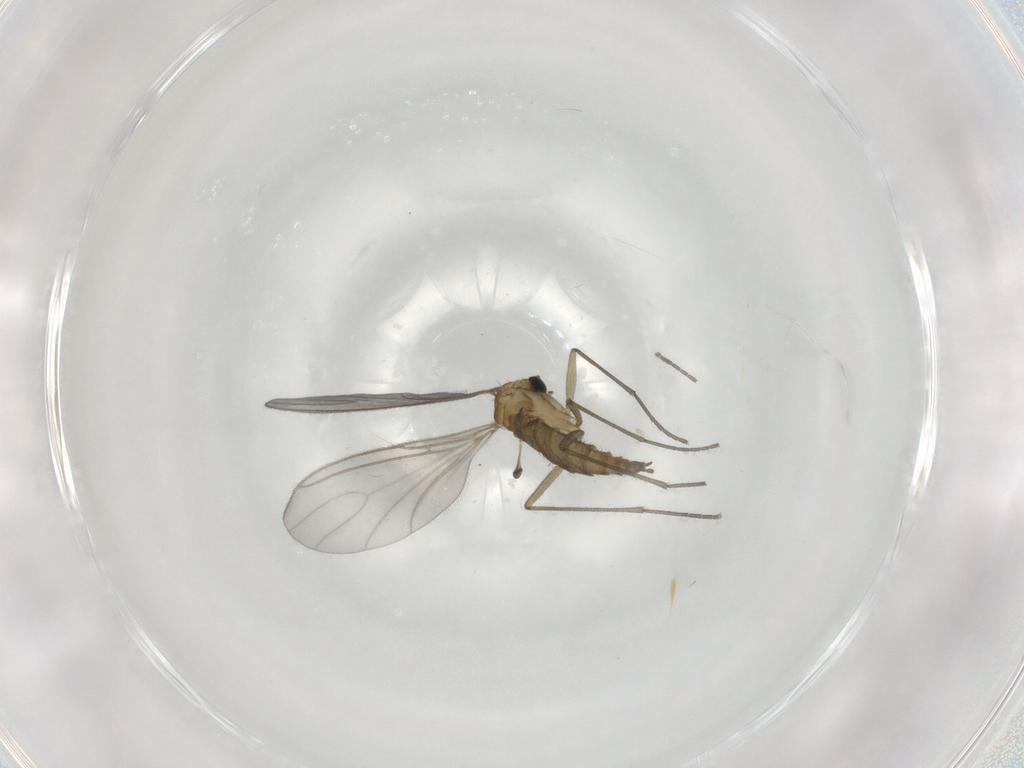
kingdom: Animalia
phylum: Arthropoda
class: Insecta
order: Diptera
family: Sciaridae
